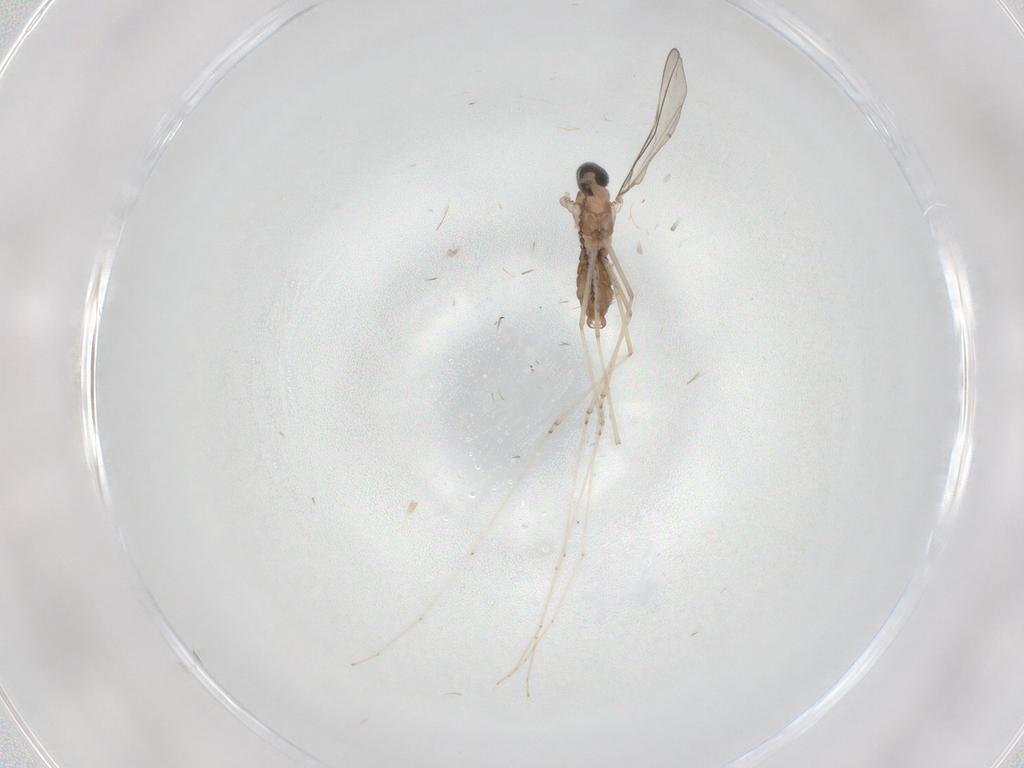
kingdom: Animalia
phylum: Arthropoda
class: Insecta
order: Diptera
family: Cecidomyiidae
